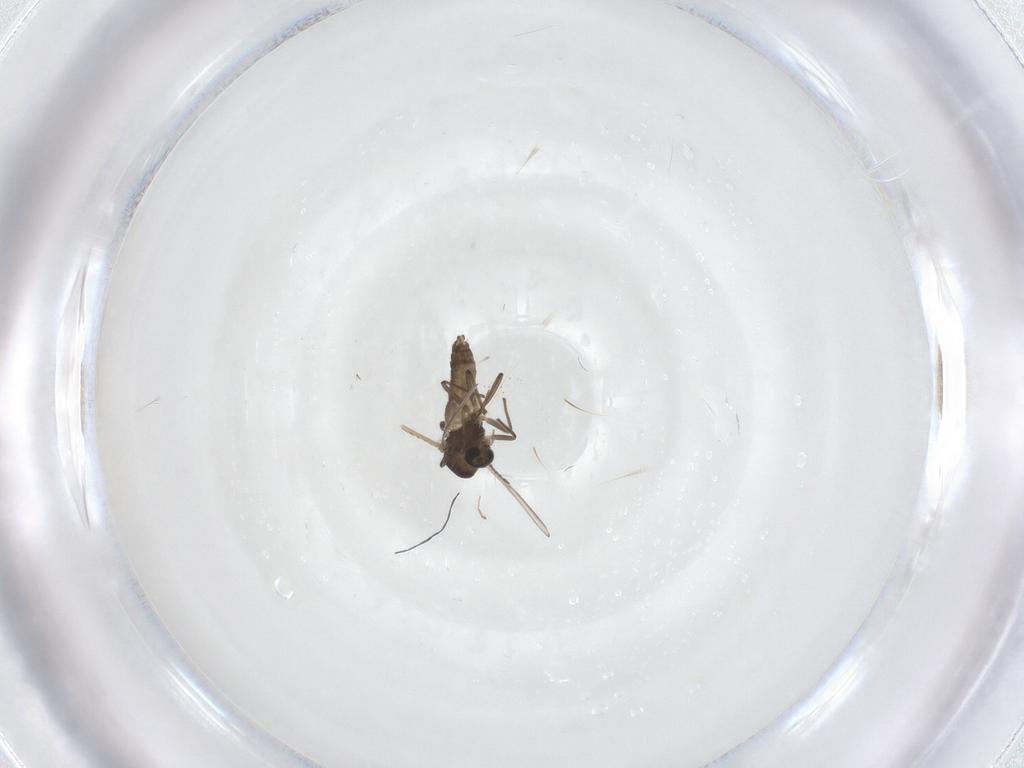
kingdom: Animalia
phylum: Arthropoda
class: Insecta
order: Diptera
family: Chironomidae
